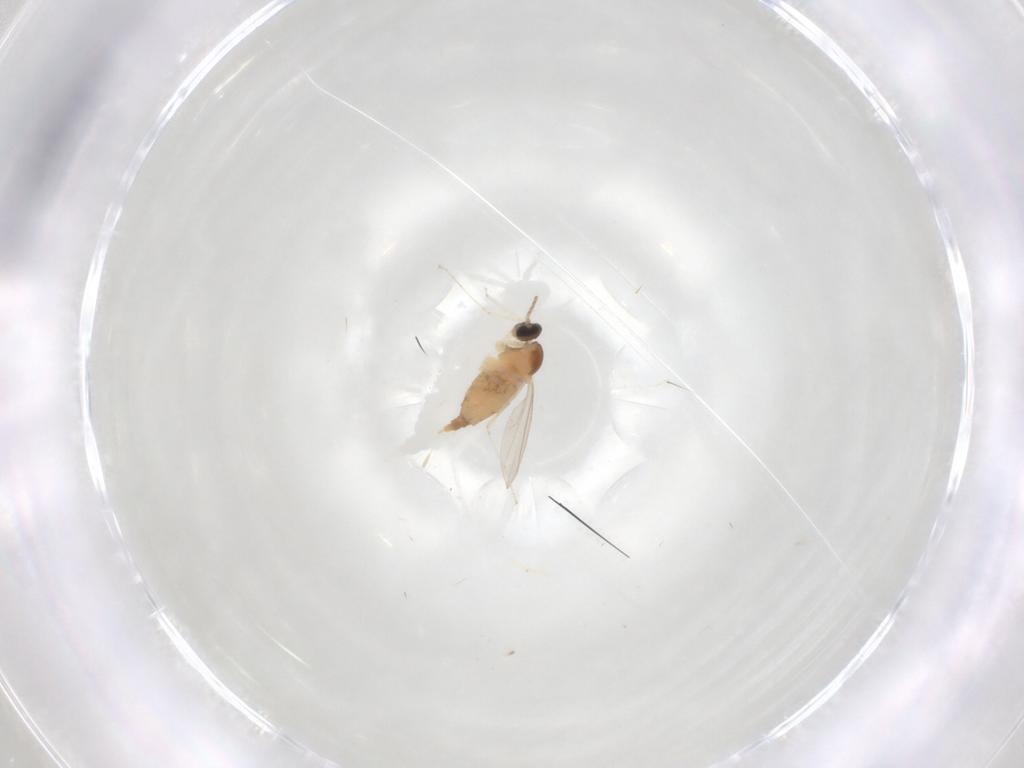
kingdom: Animalia
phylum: Arthropoda
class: Insecta
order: Diptera
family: Cecidomyiidae
